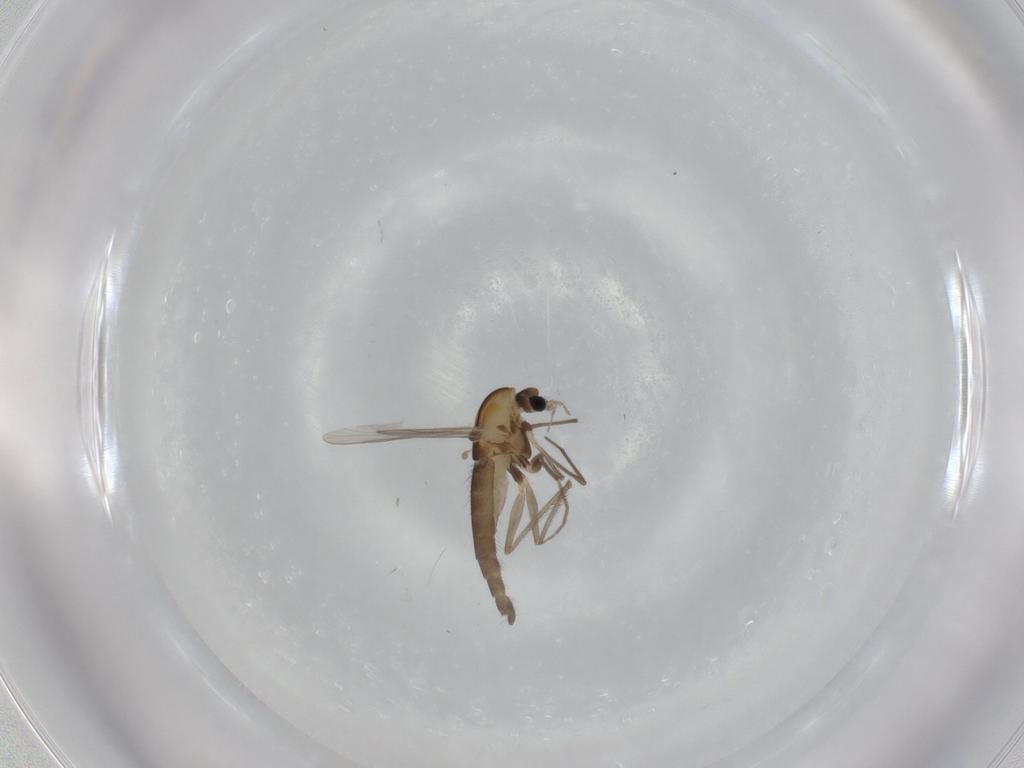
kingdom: Animalia
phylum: Arthropoda
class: Insecta
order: Diptera
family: Chironomidae
